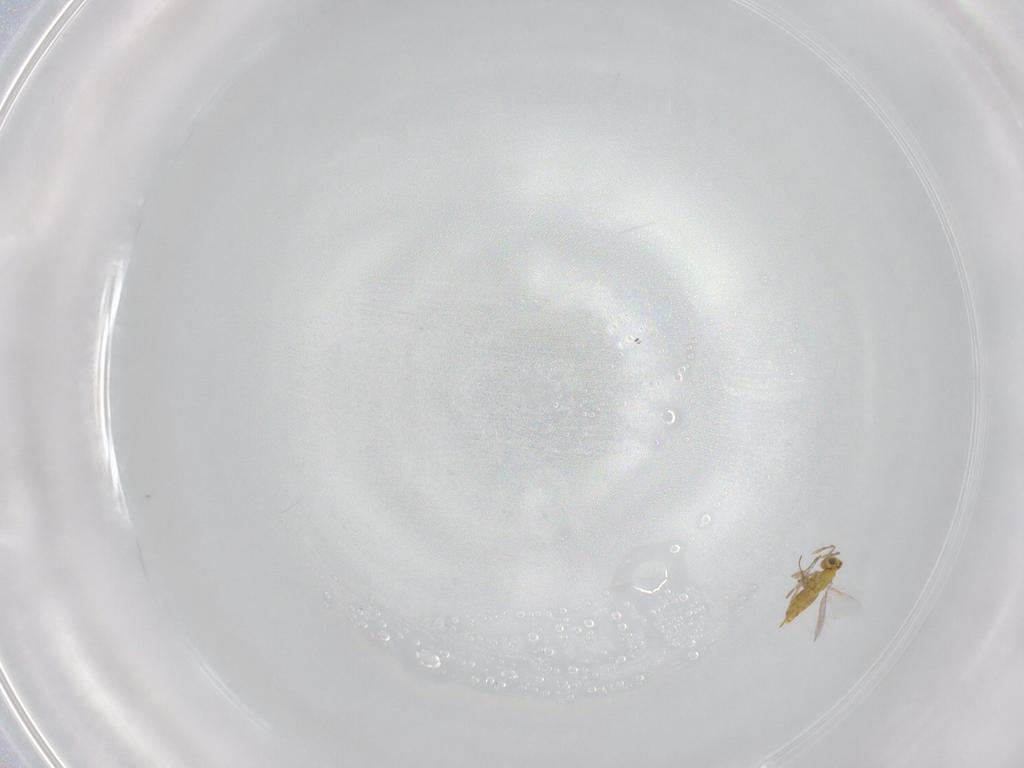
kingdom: Animalia
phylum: Arthropoda
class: Insecta
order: Hymenoptera
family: Aphelinidae
